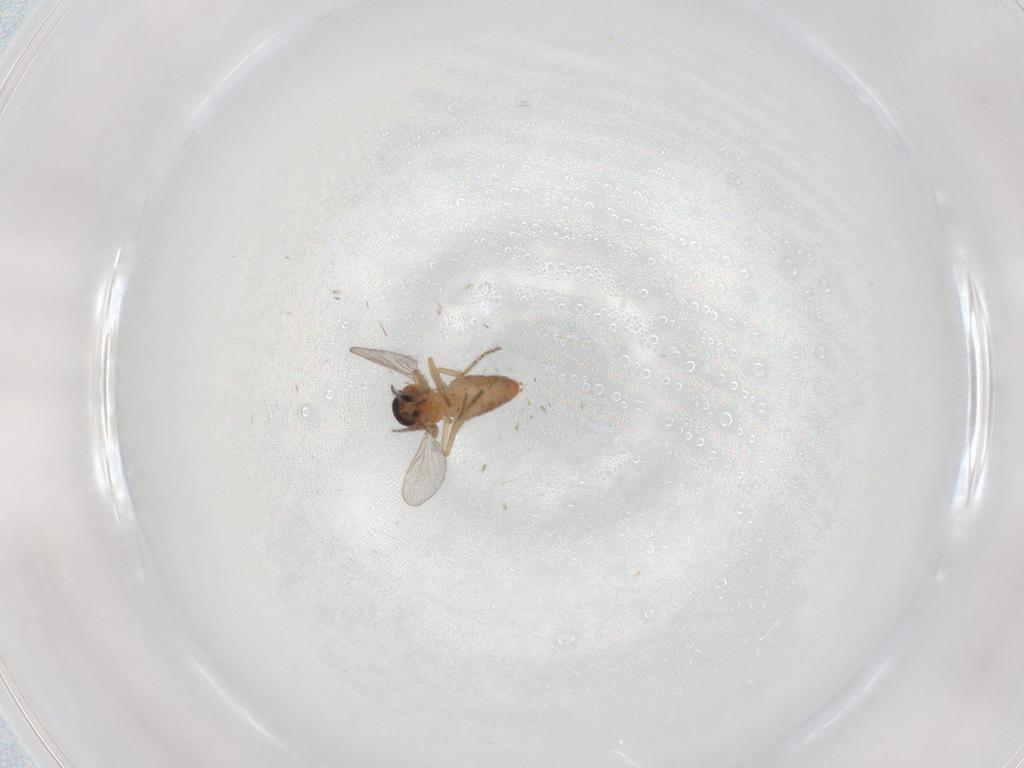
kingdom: Animalia
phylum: Arthropoda
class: Insecta
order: Diptera
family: Ceratopogonidae
